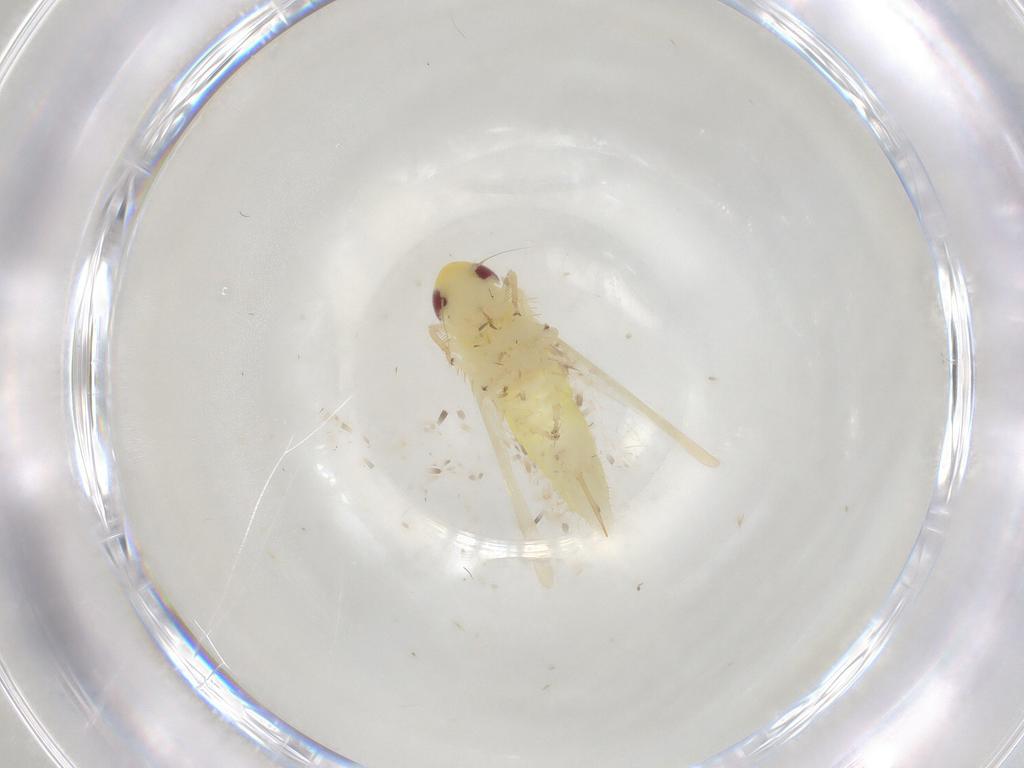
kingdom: Animalia
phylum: Arthropoda
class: Insecta
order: Hemiptera
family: Cicadellidae
